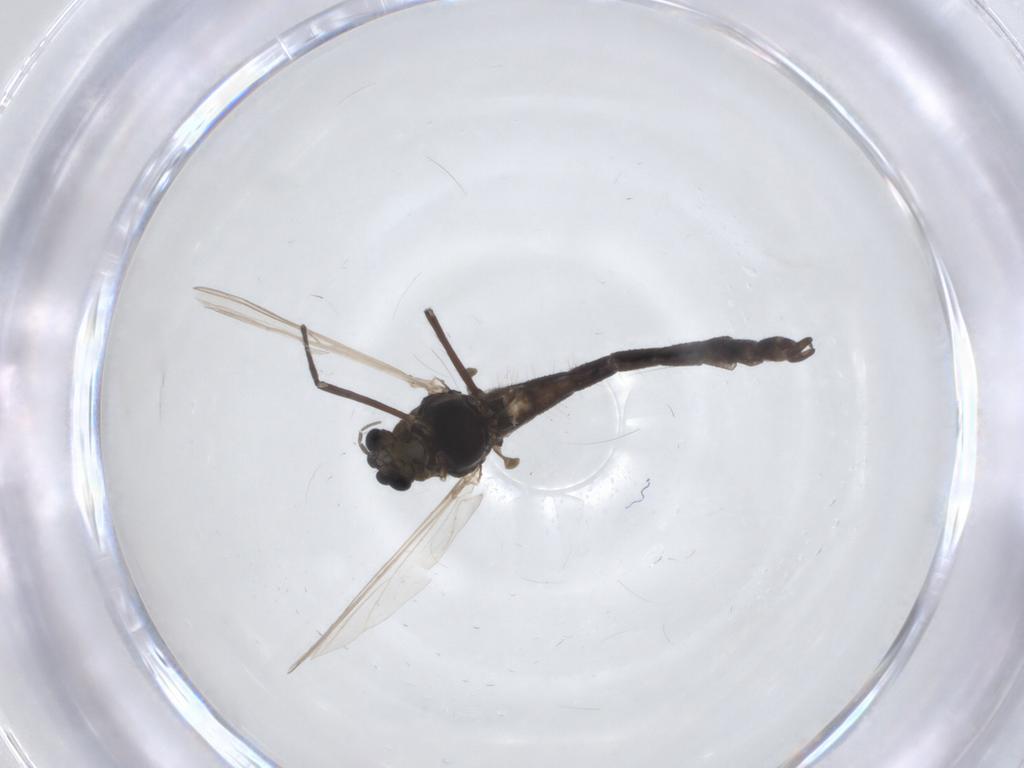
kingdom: Animalia
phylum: Arthropoda
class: Insecta
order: Diptera
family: Chironomidae
